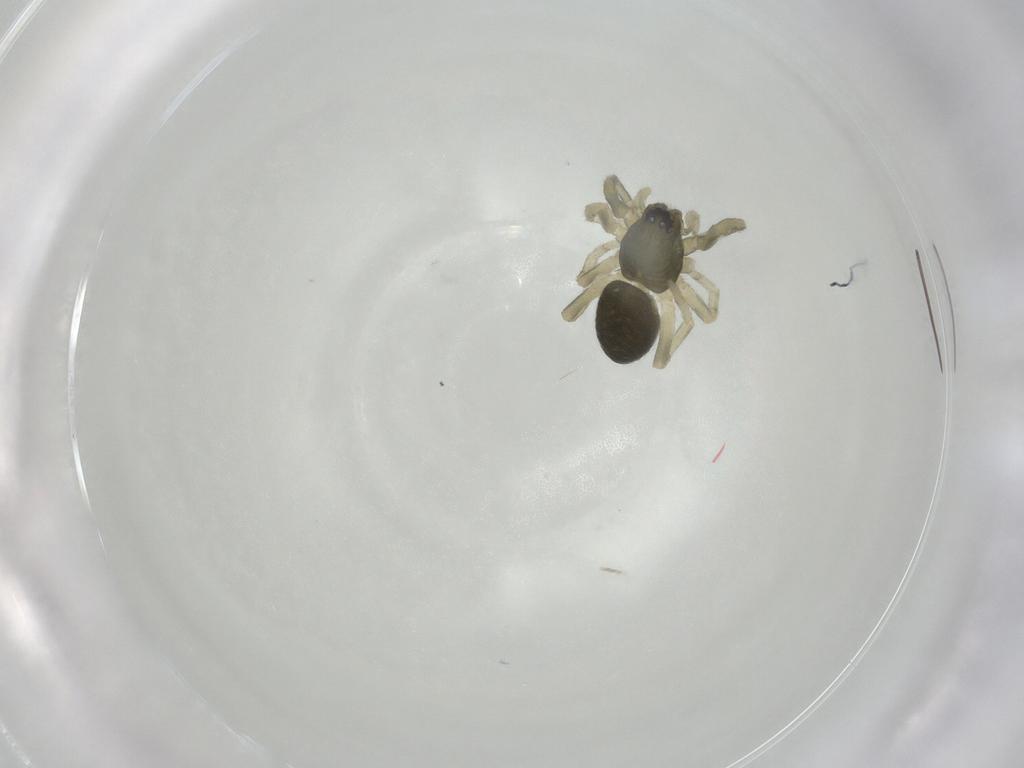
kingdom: Animalia
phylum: Arthropoda
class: Arachnida
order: Araneae
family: Trachelidae
